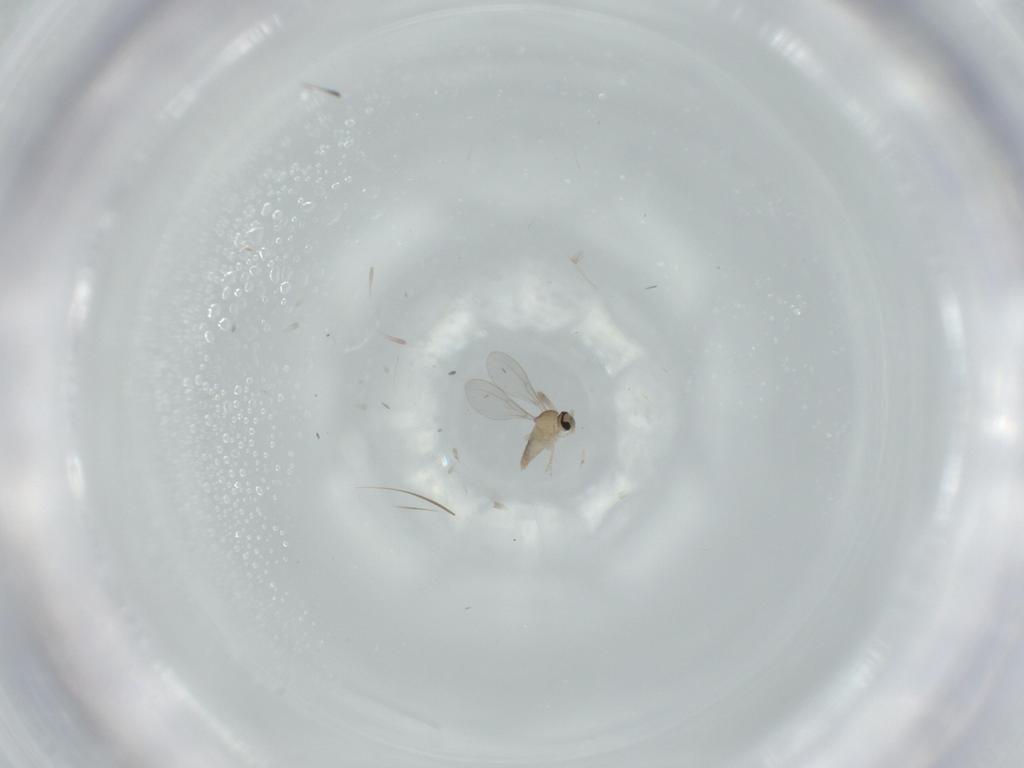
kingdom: Animalia
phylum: Arthropoda
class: Insecta
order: Diptera
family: Cecidomyiidae
